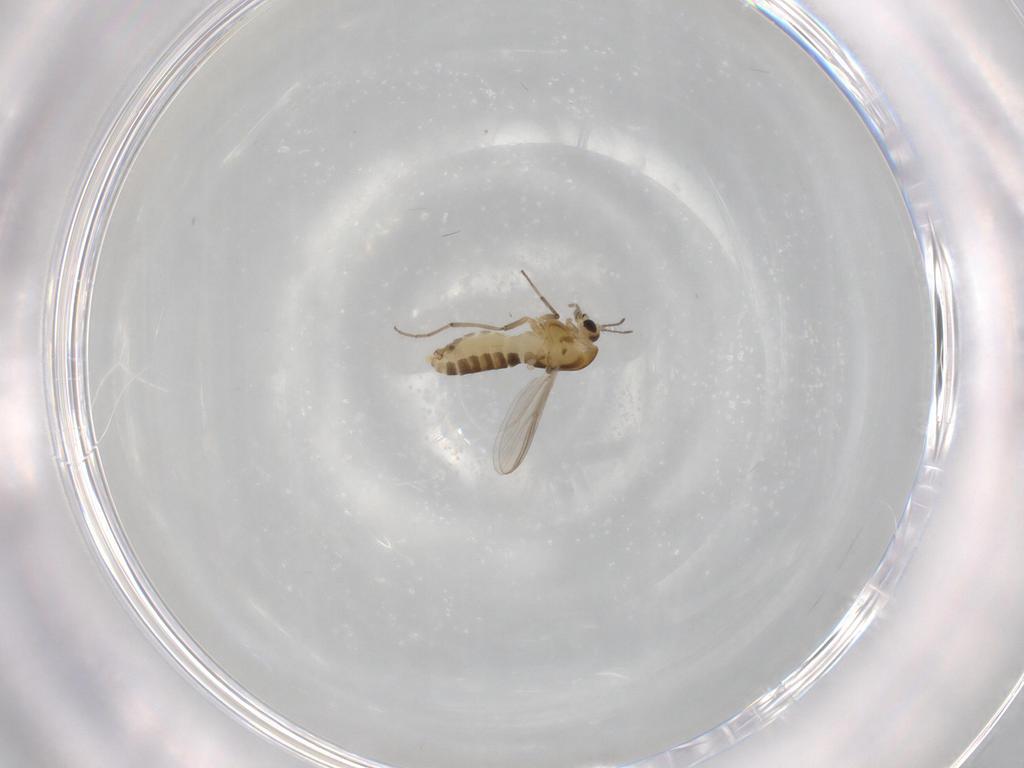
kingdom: Animalia
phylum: Arthropoda
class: Insecta
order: Diptera
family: Chironomidae
